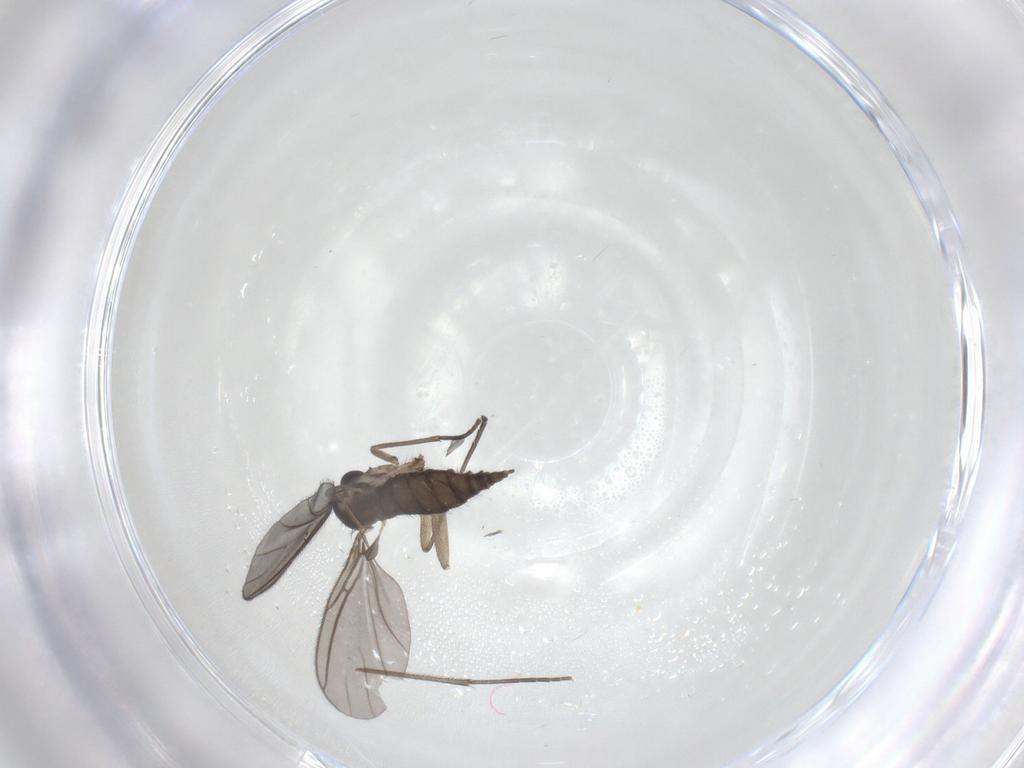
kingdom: Animalia
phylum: Arthropoda
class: Insecta
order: Diptera
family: Sciaridae
